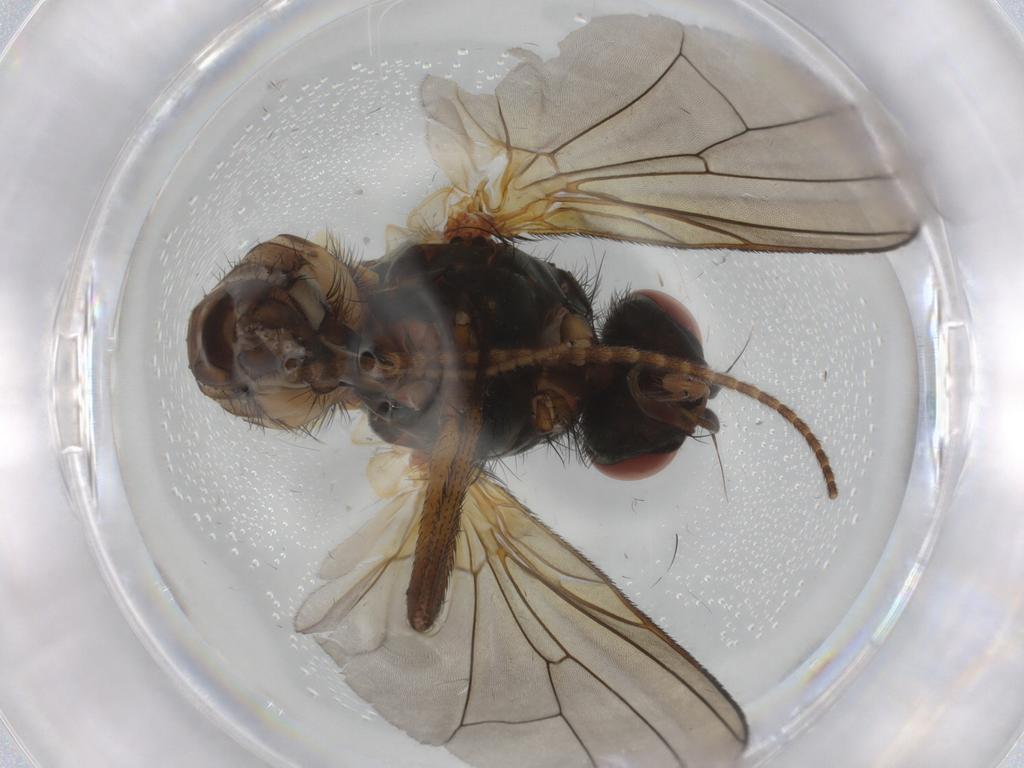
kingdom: Animalia
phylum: Arthropoda
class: Insecta
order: Diptera
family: Anthomyiidae
